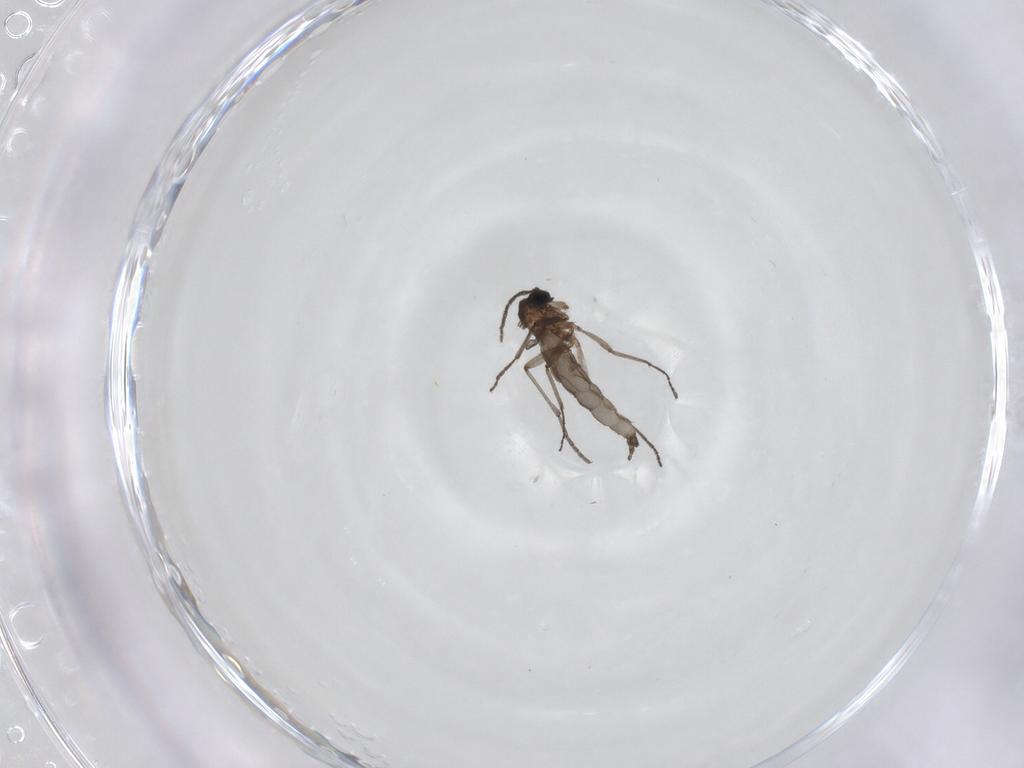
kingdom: Animalia
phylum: Arthropoda
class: Insecta
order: Diptera
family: Sciaridae
